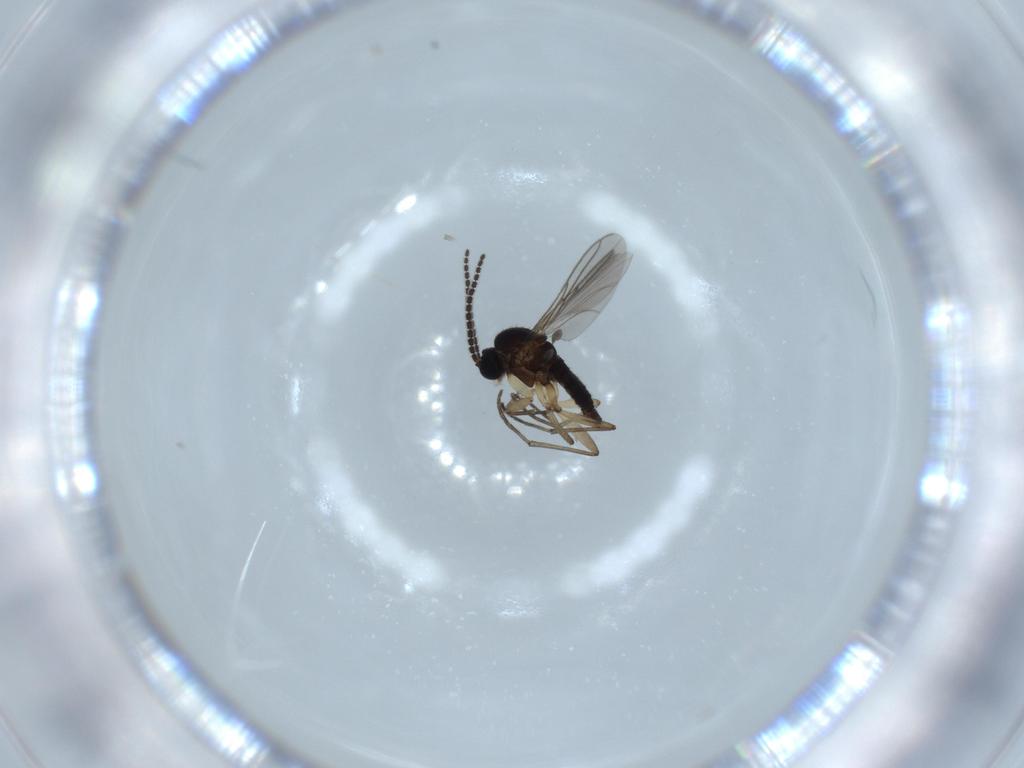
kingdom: Animalia
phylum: Arthropoda
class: Insecta
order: Diptera
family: Sciaridae
